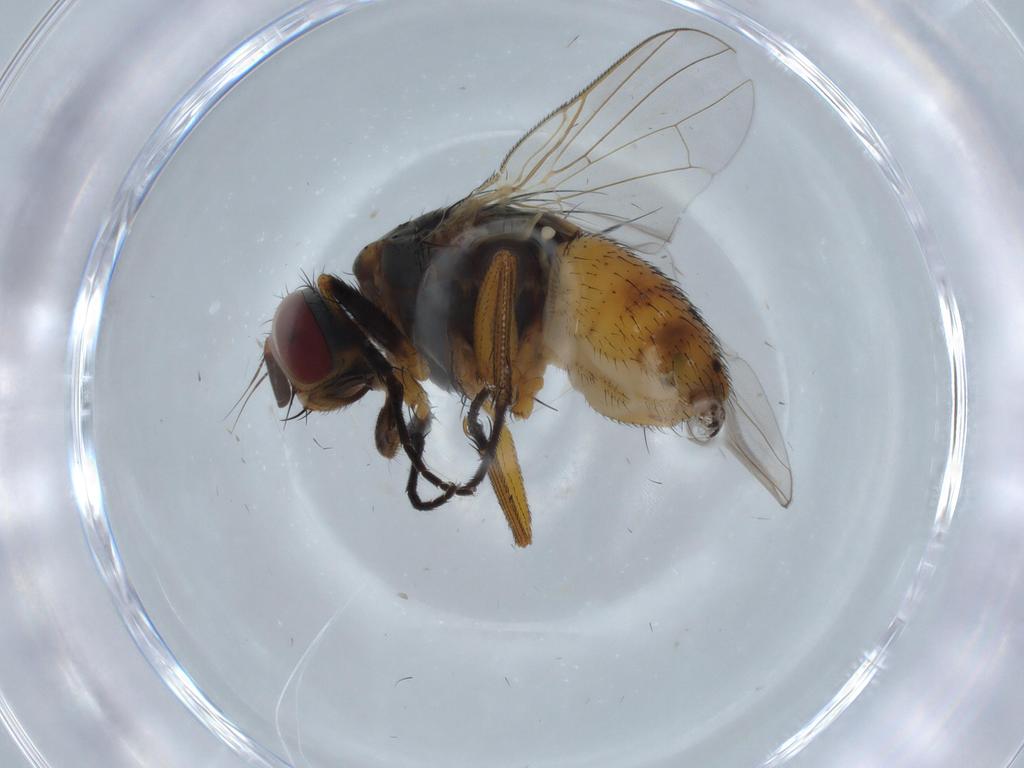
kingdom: Animalia
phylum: Arthropoda
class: Insecta
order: Diptera
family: Muscidae
